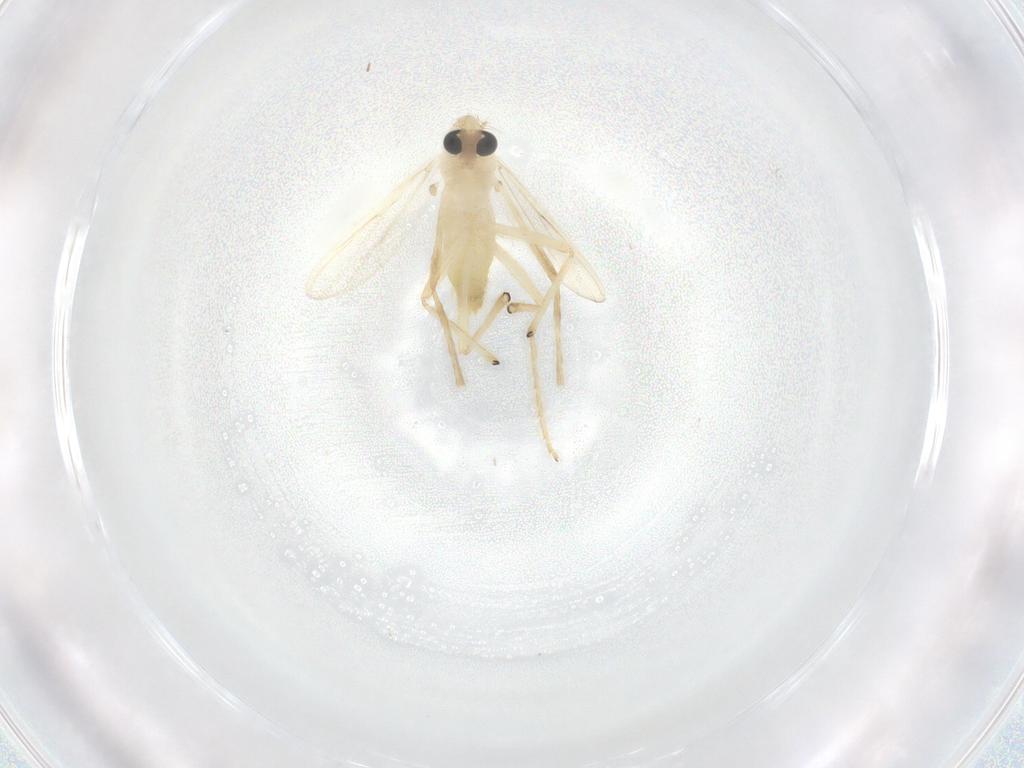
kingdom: Animalia
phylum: Arthropoda
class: Insecta
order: Diptera
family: Chironomidae
